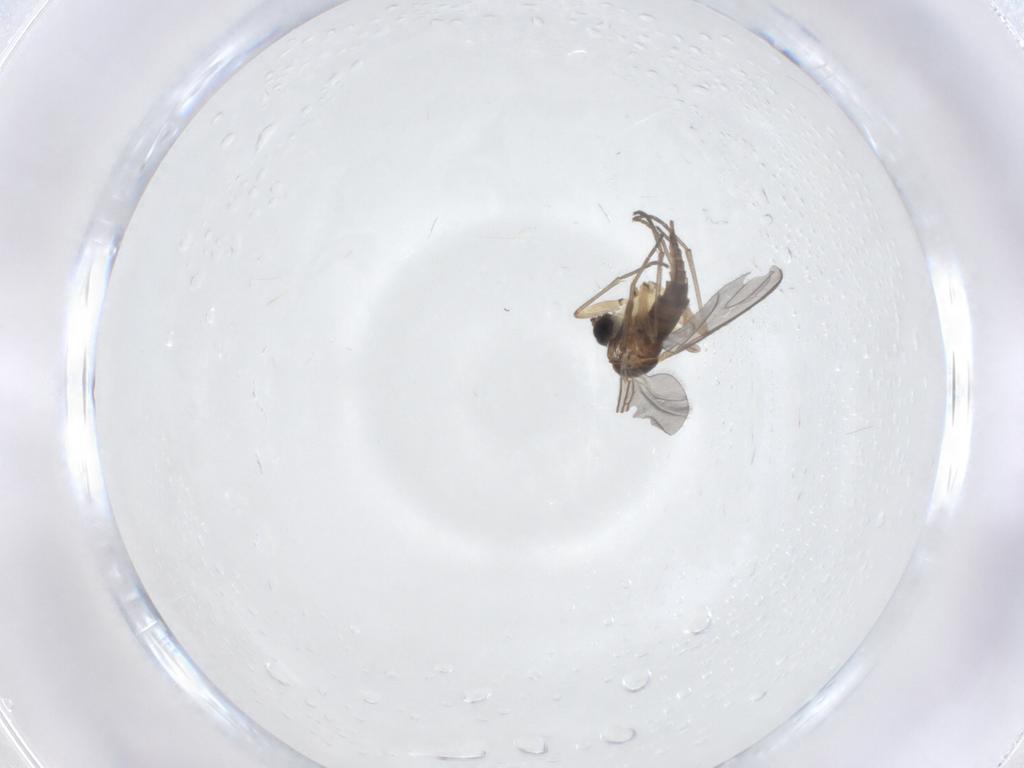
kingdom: Animalia
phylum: Arthropoda
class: Insecta
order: Diptera
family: Sciaridae
